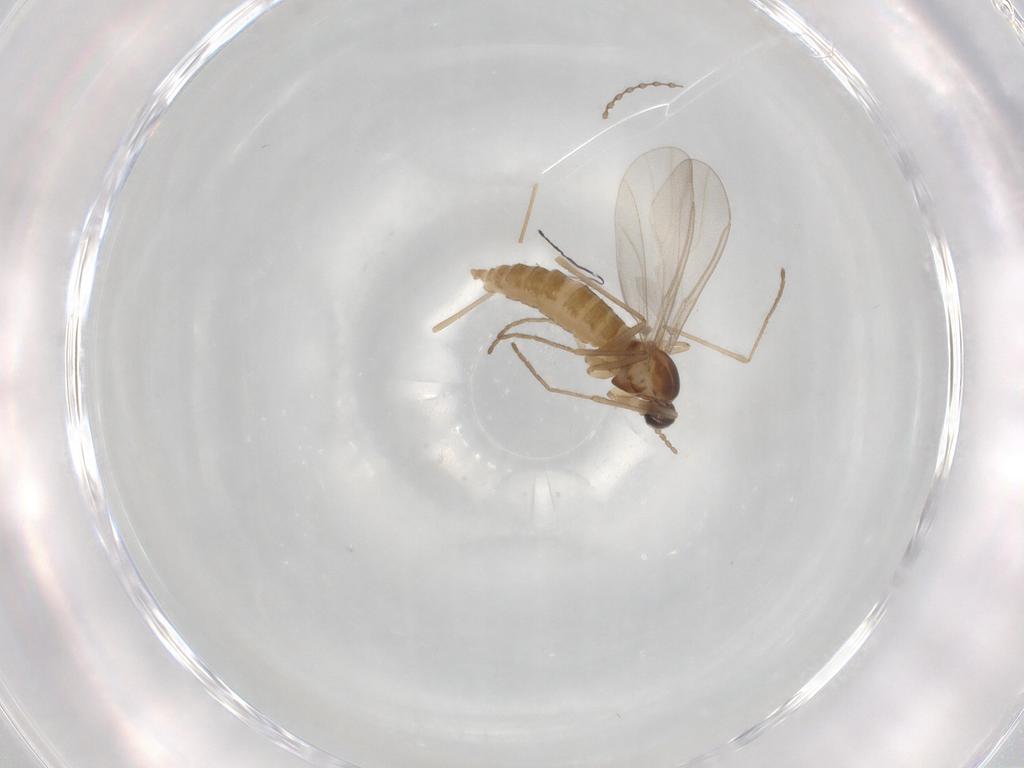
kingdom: Animalia
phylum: Arthropoda
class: Insecta
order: Diptera
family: Cecidomyiidae
